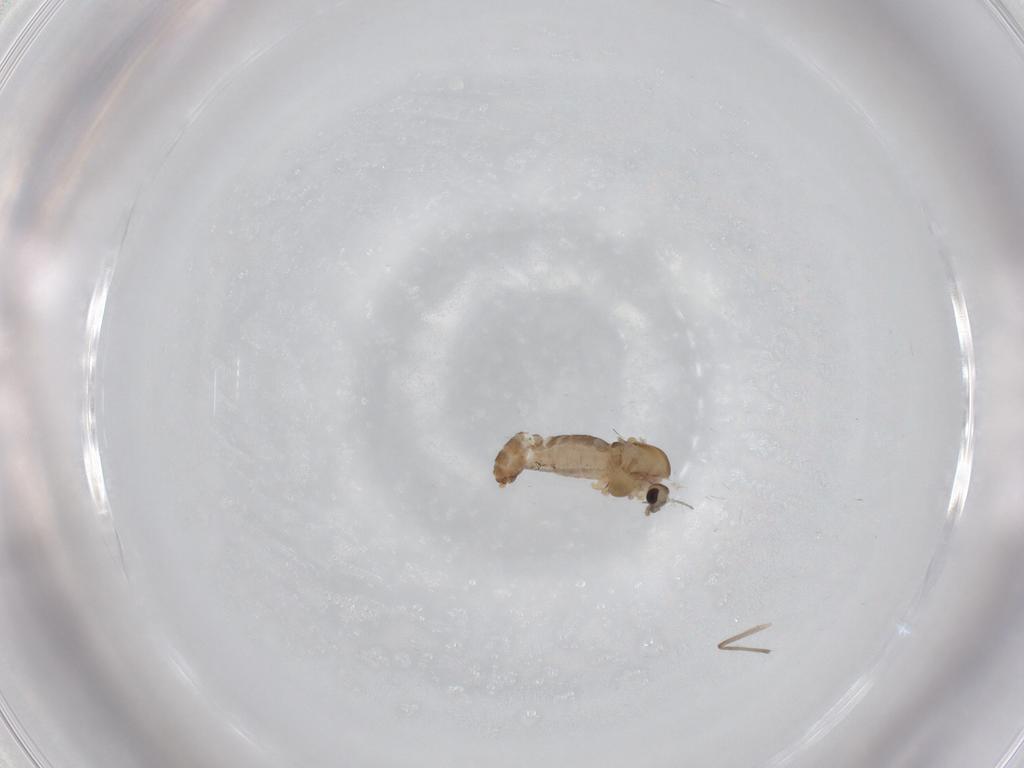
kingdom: Animalia
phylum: Arthropoda
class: Insecta
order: Diptera
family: Chironomidae
